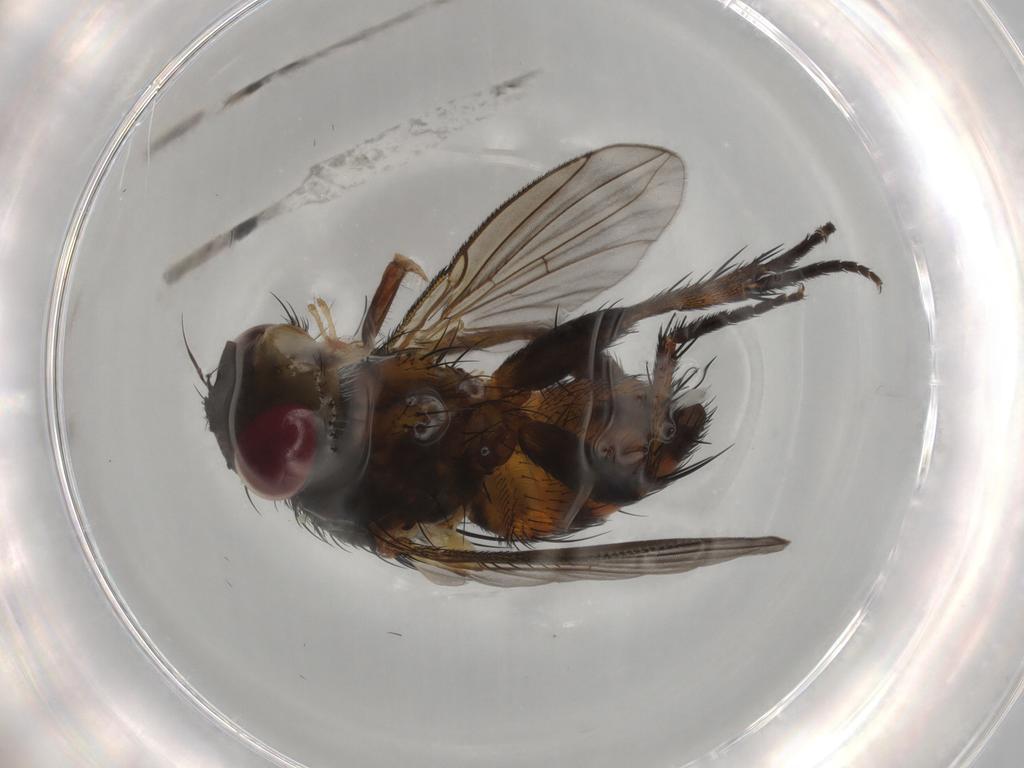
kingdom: Animalia
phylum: Arthropoda
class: Insecta
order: Diptera
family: Tachinidae
